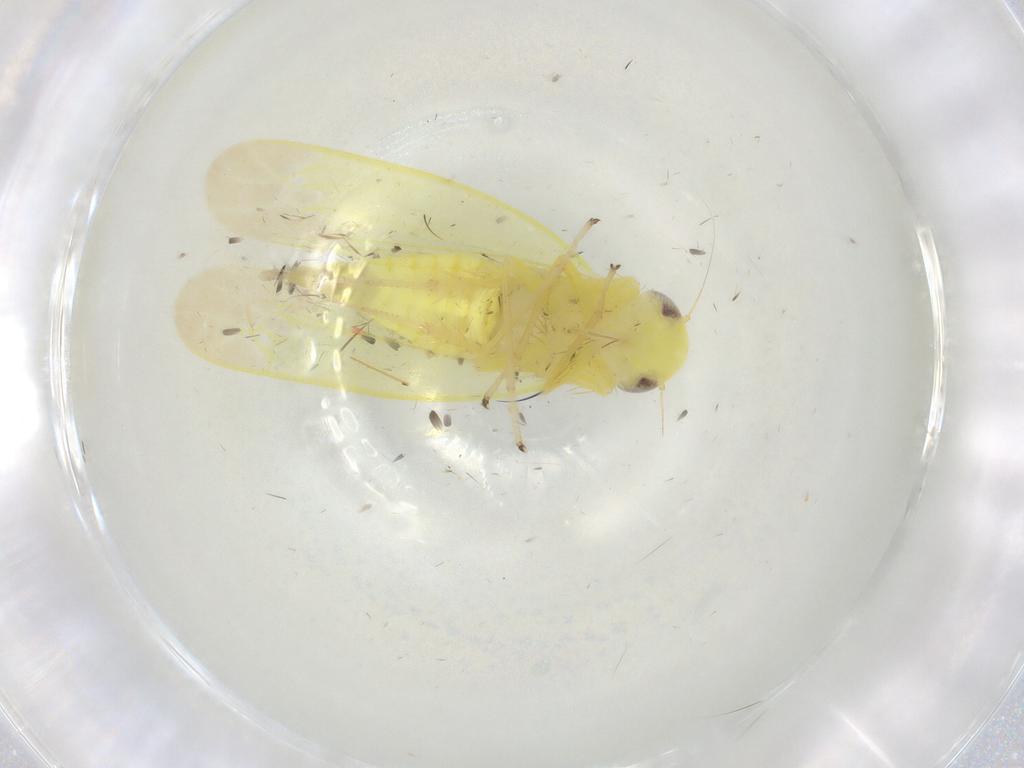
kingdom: Animalia
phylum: Arthropoda
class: Insecta
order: Hemiptera
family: Cicadellidae
